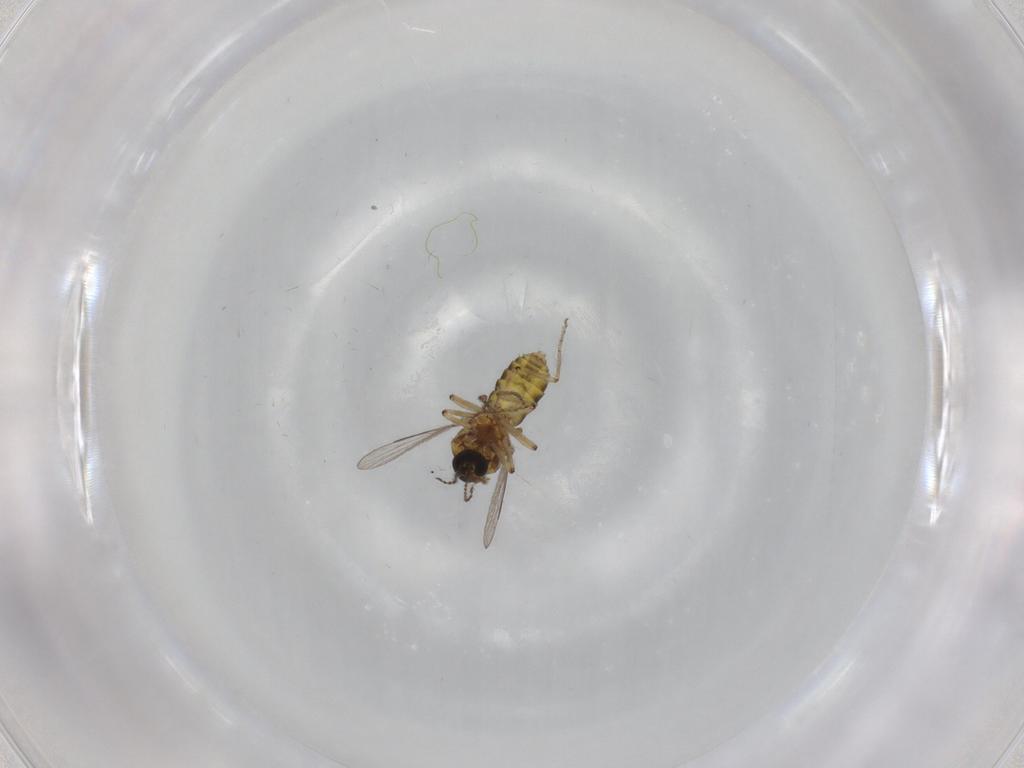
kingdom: Animalia
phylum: Arthropoda
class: Insecta
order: Diptera
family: Ceratopogonidae
